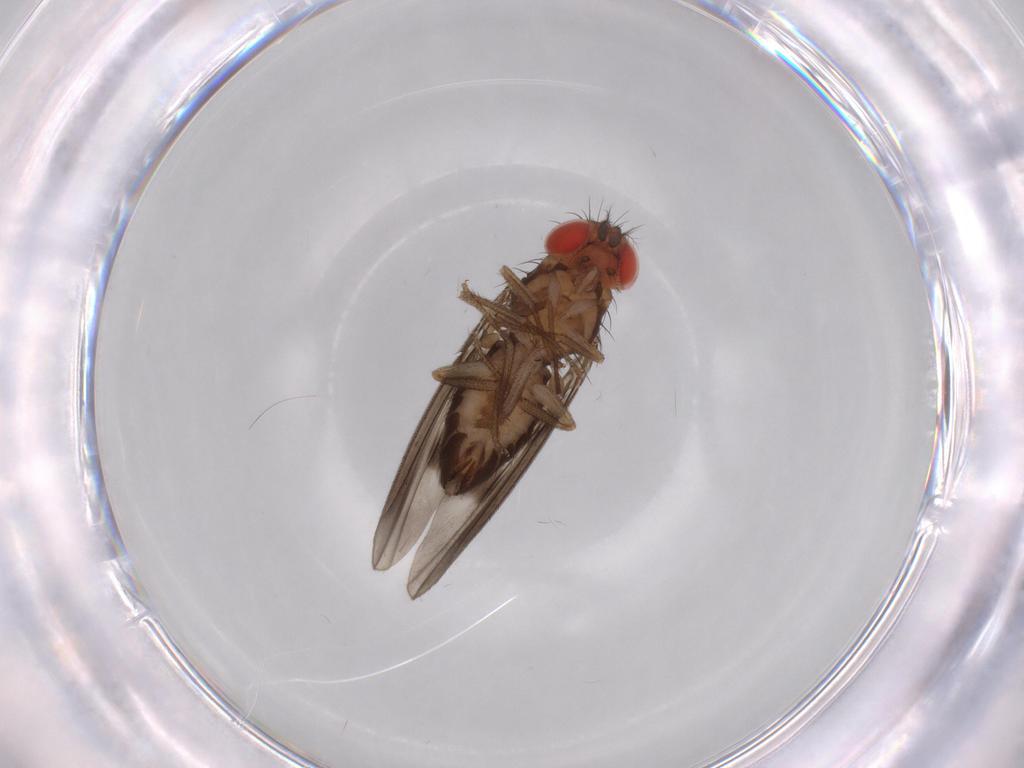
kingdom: Animalia
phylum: Arthropoda
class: Insecta
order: Diptera
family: Drosophilidae
